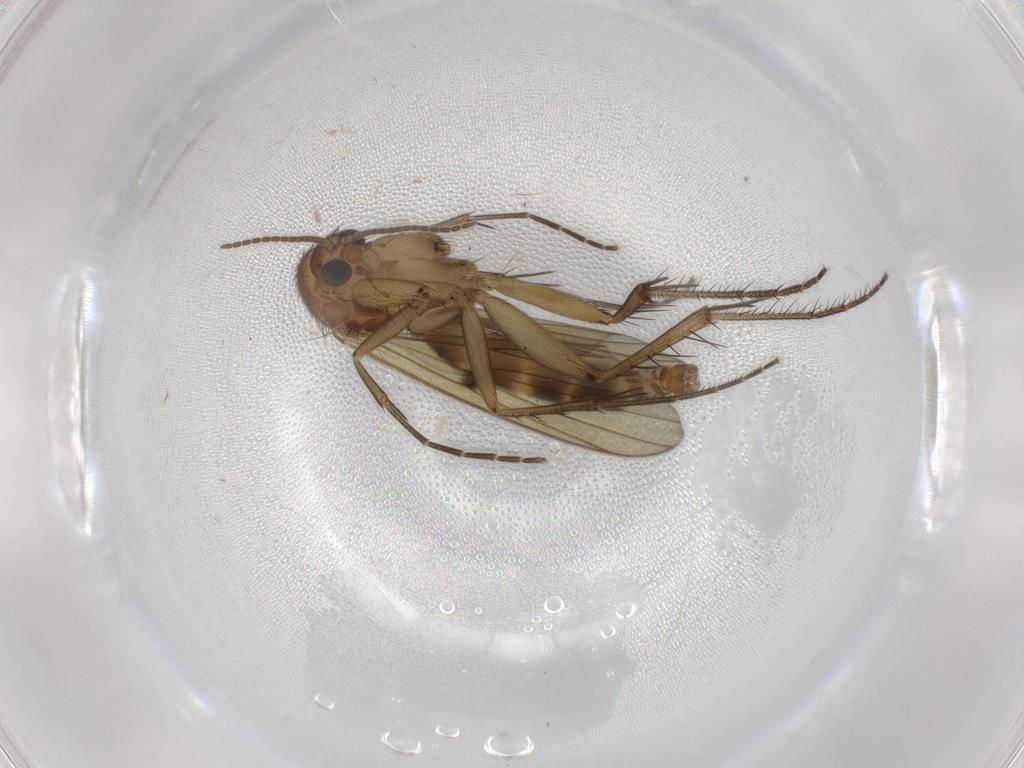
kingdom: Animalia
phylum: Arthropoda
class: Insecta
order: Diptera
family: Mycetophilidae
